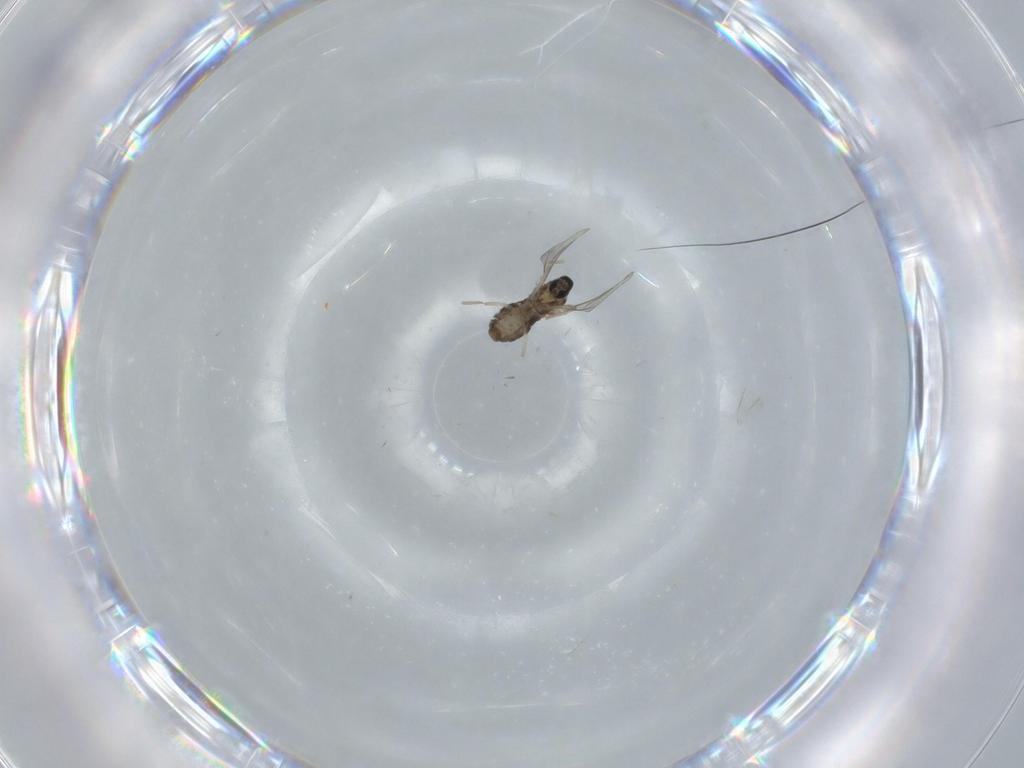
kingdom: Animalia
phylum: Arthropoda
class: Insecta
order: Diptera
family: Cecidomyiidae
